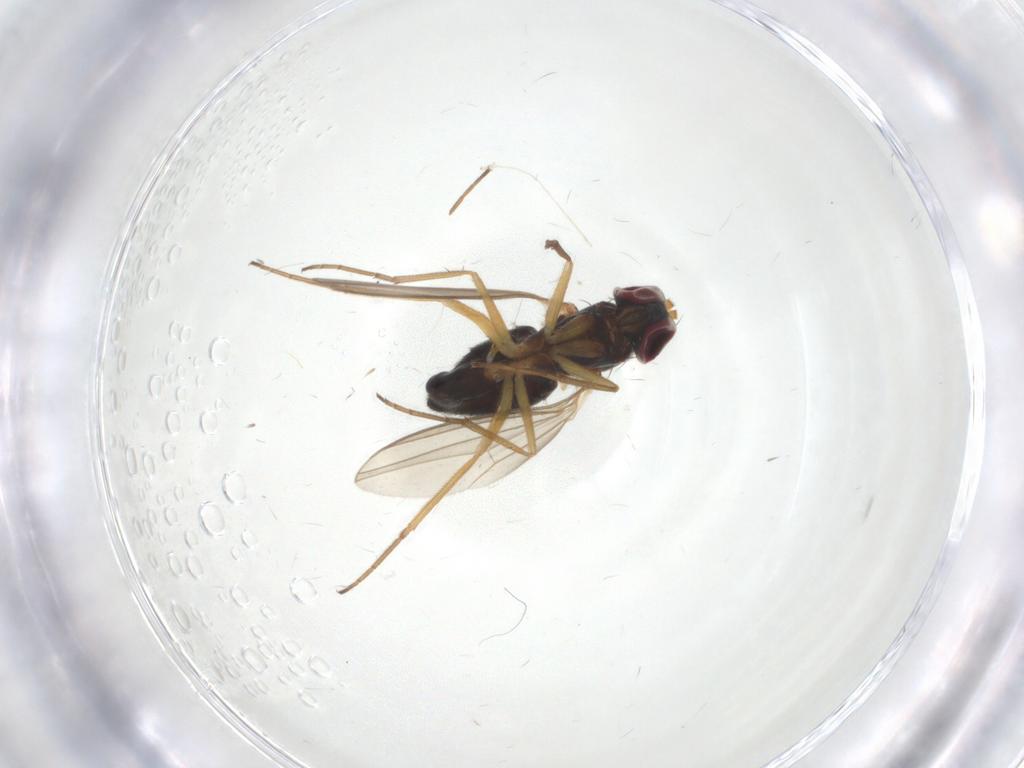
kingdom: Animalia
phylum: Arthropoda
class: Insecta
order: Diptera
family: Dolichopodidae
